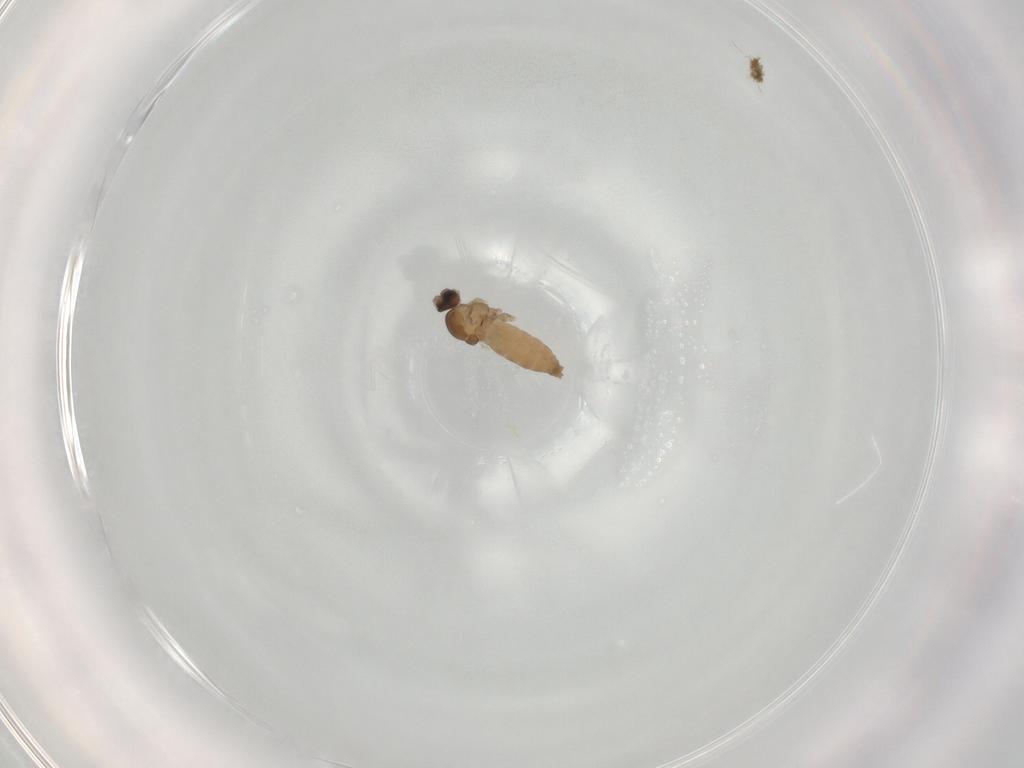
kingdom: Animalia
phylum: Arthropoda
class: Insecta
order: Diptera
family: Cecidomyiidae
